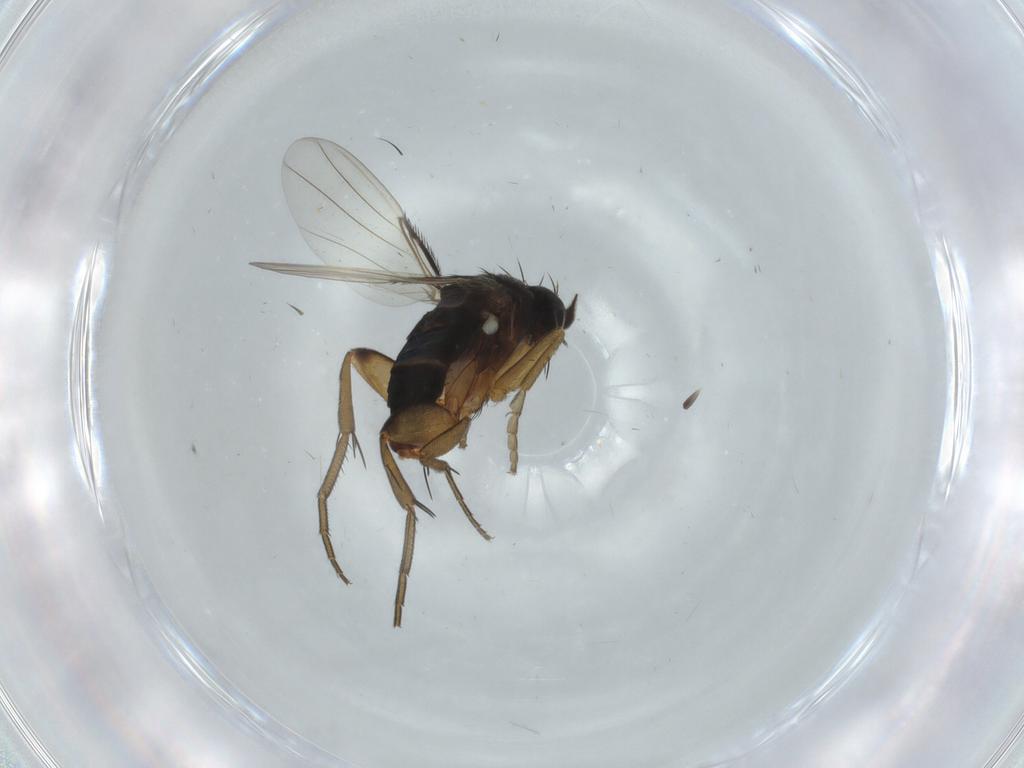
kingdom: Animalia
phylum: Arthropoda
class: Insecta
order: Diptera
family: Phoridae
